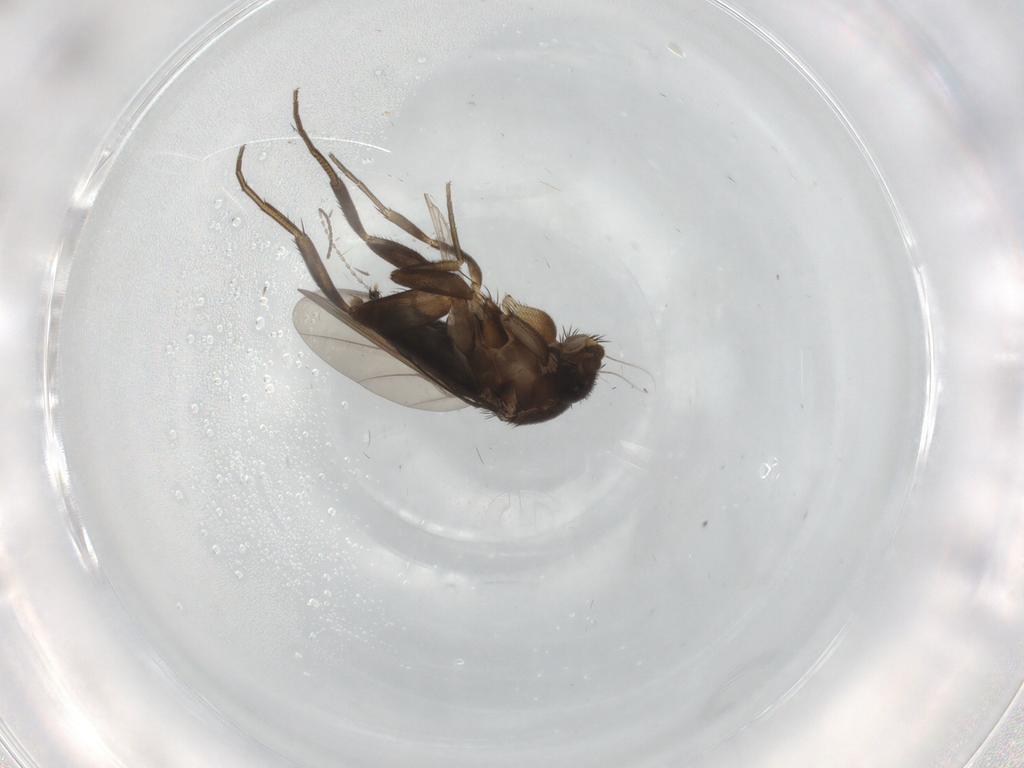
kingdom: Animalia
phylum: Arthropoda
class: Insecta
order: Diptera
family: Phoridae
